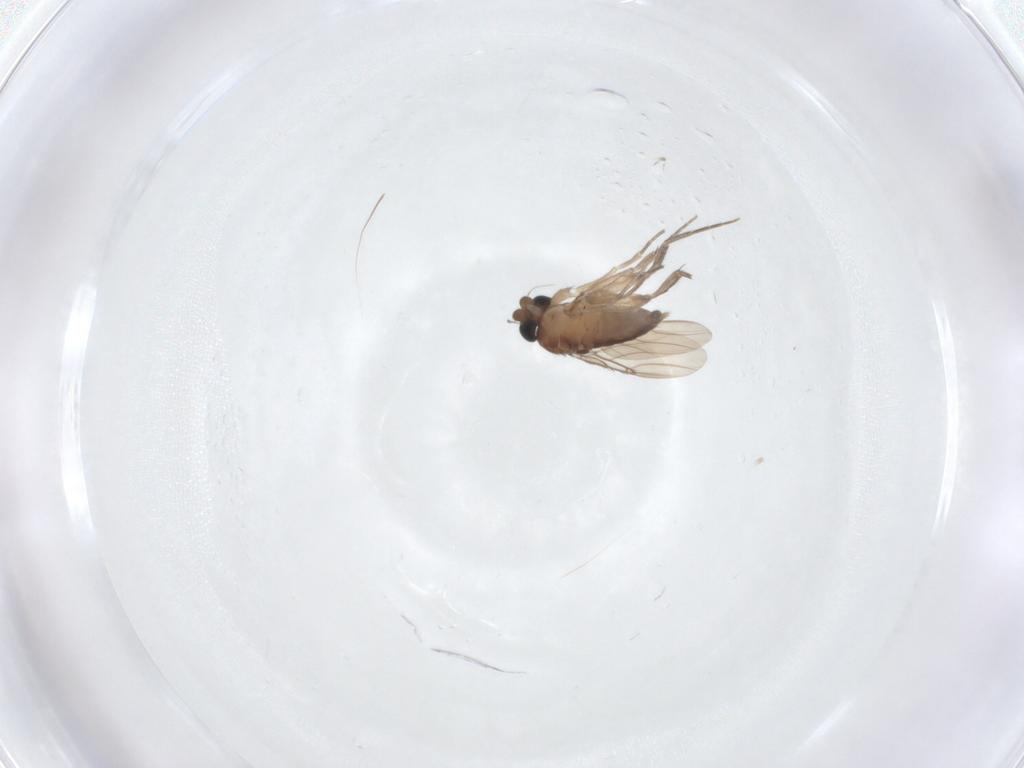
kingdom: Animalia
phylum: Arthropoda
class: Insecta
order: Diptera
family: Phoridae
